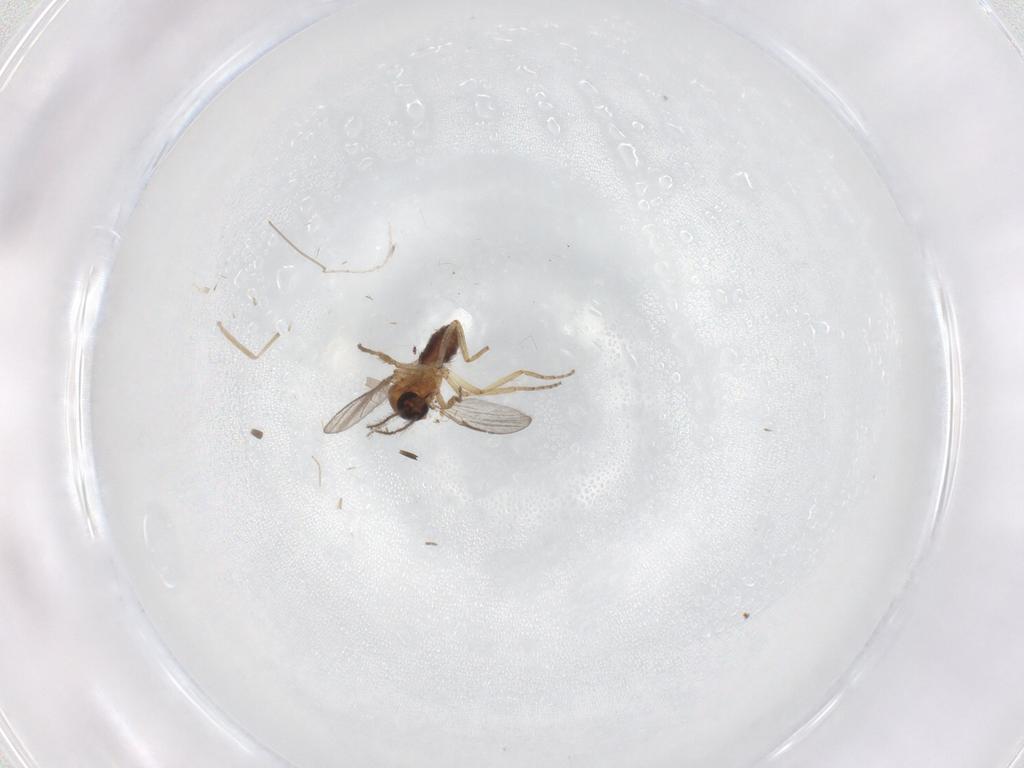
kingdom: Animalia
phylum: Arthropoda
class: Insecta
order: Diptera
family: Chironomidae
